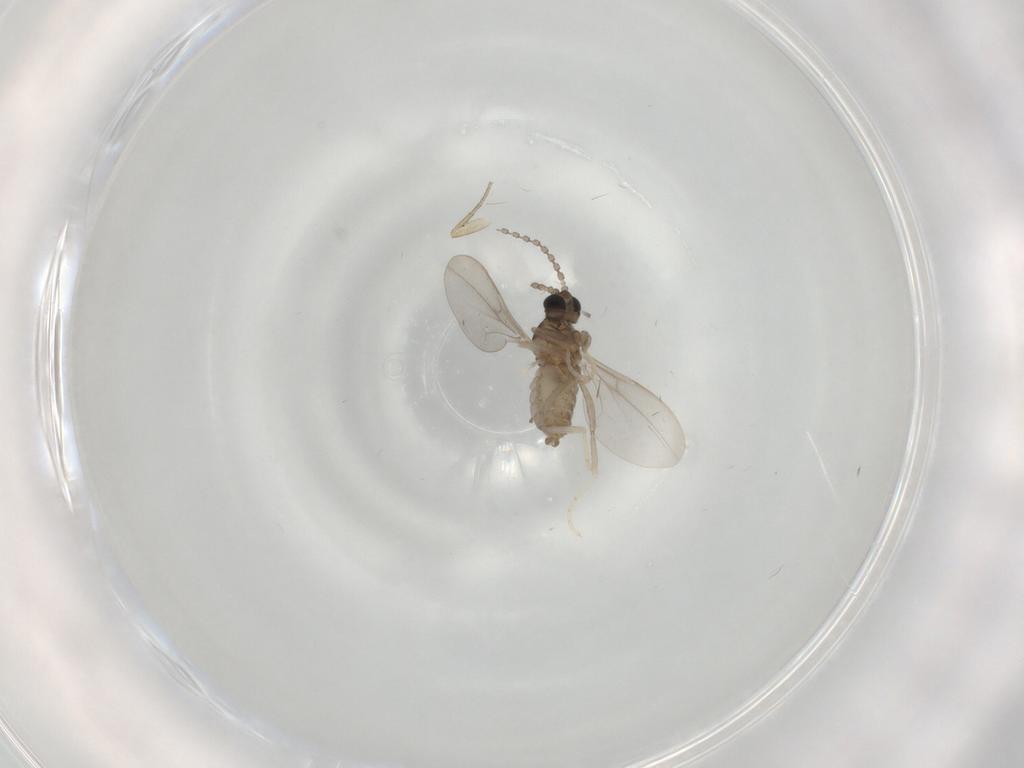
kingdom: Animalia
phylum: Arthropoda
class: Insecta
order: Diptera
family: Cecidomyiidae
